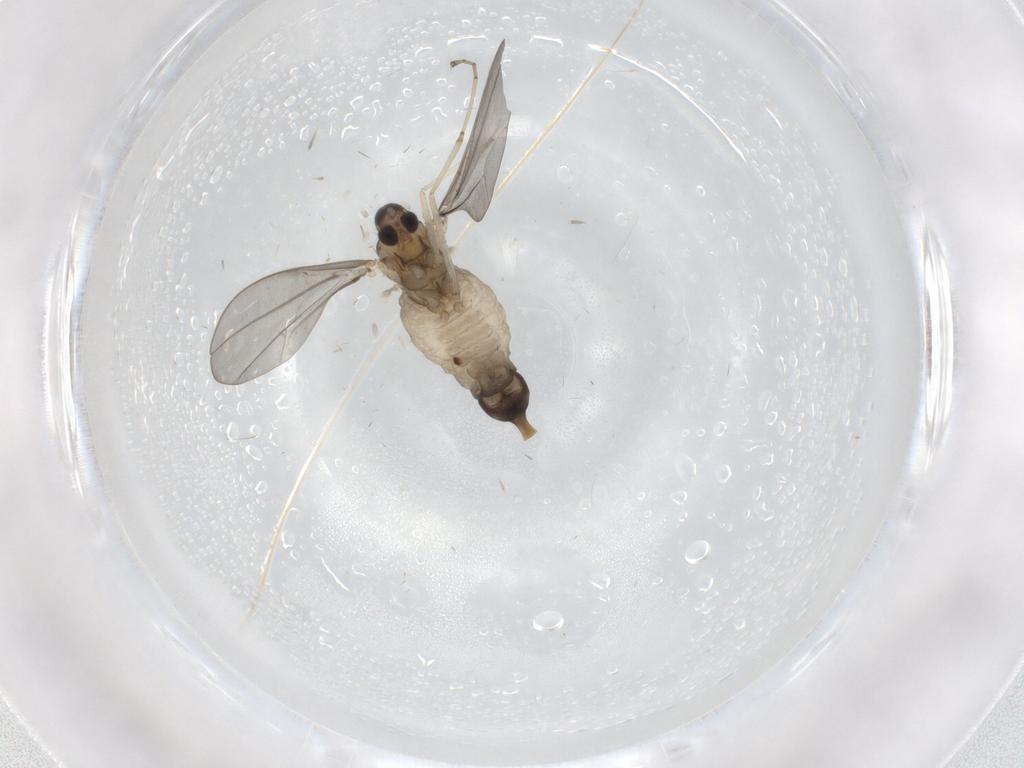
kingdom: Animalia
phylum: Arthropoda
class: Insecta
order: Diptera
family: Cecidomyiidae
